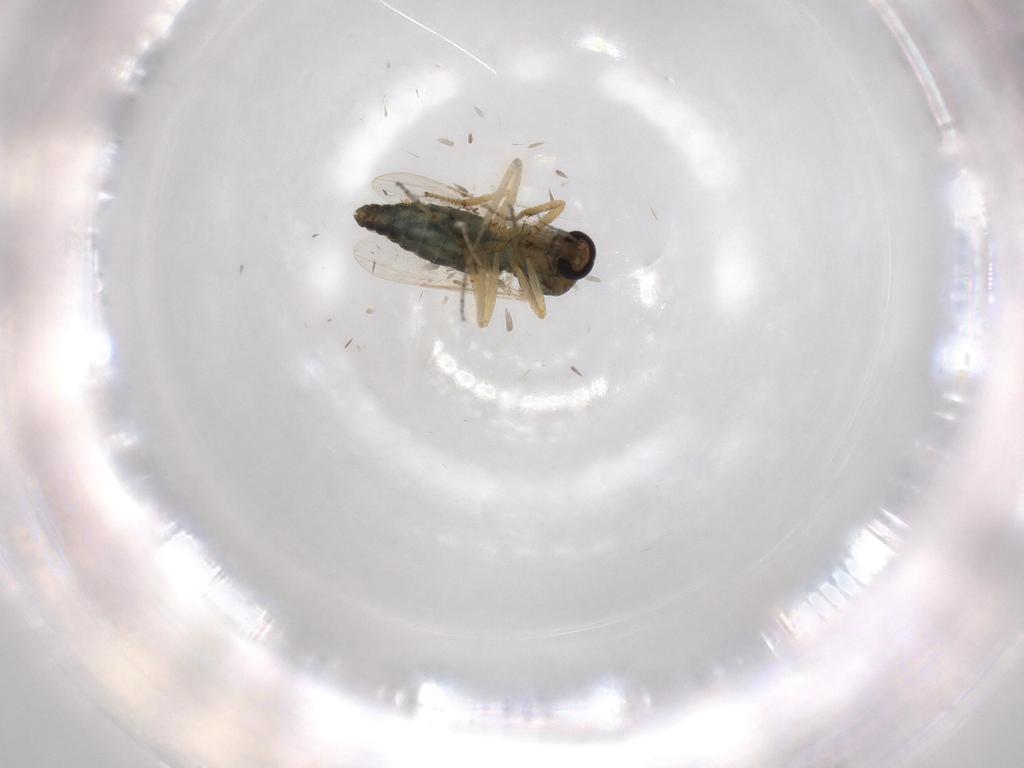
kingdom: Animalia
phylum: Arthropoda
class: Insecta
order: Diptera
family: Ceratopogonidae
